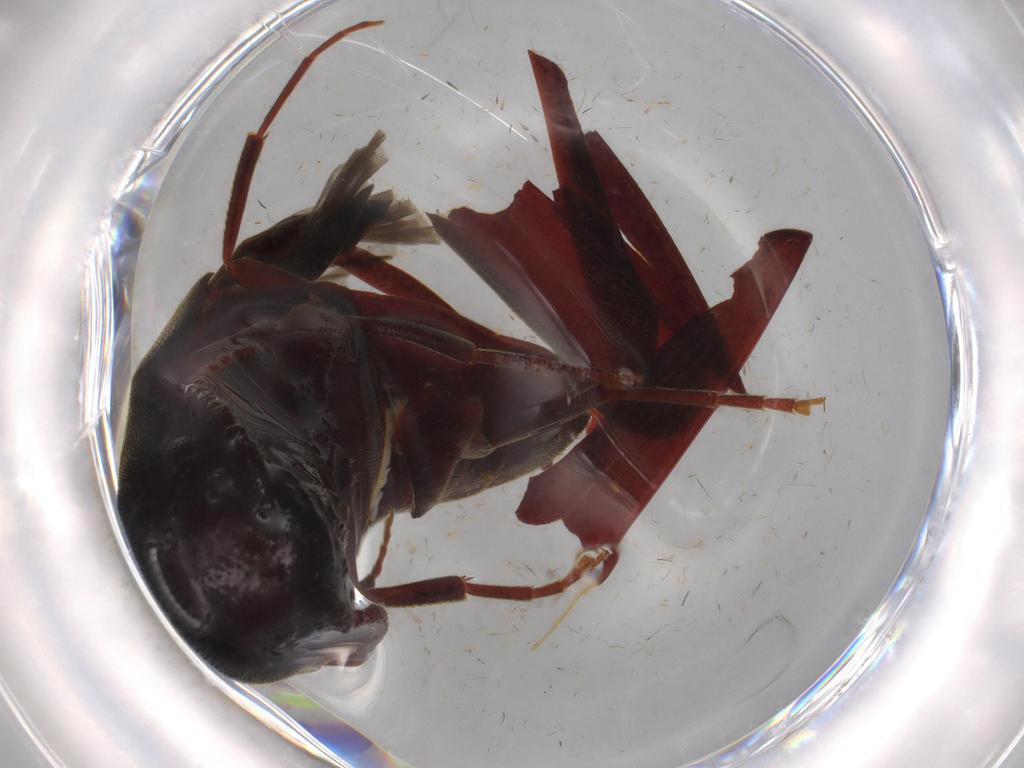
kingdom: Animalia
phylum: Arthropoda
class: Insecta
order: Coleoptera
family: Eucnemidae
